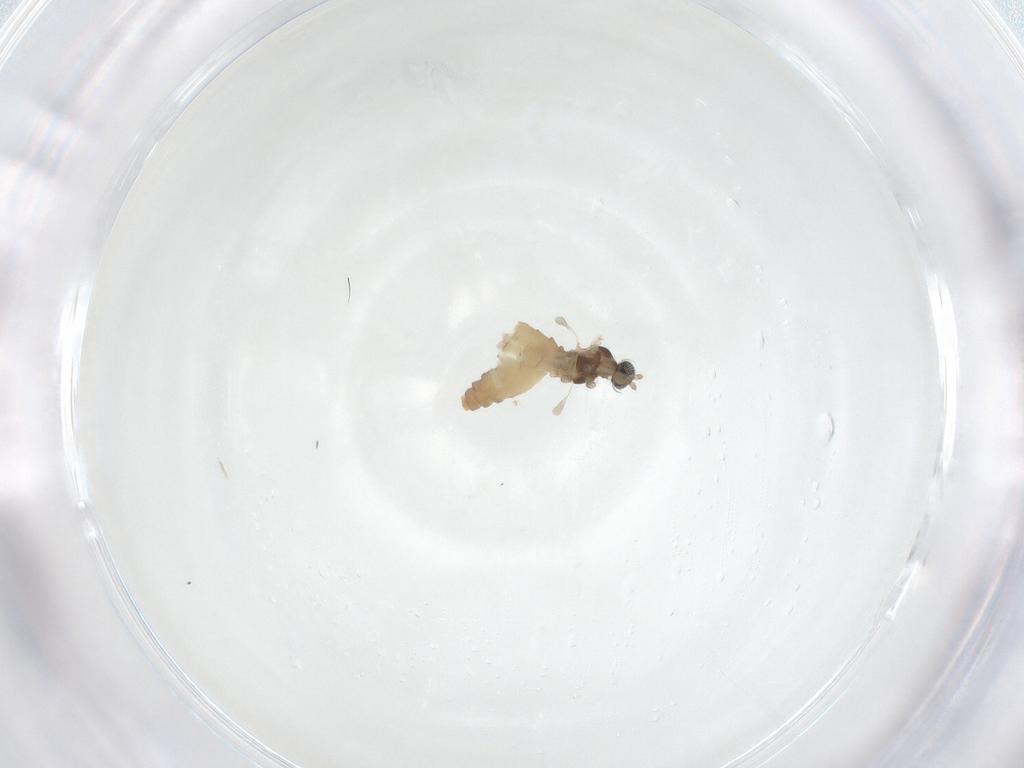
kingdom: Animalia
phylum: Arthropoda
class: Insecta
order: Diptera
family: Cecidomyiidae
